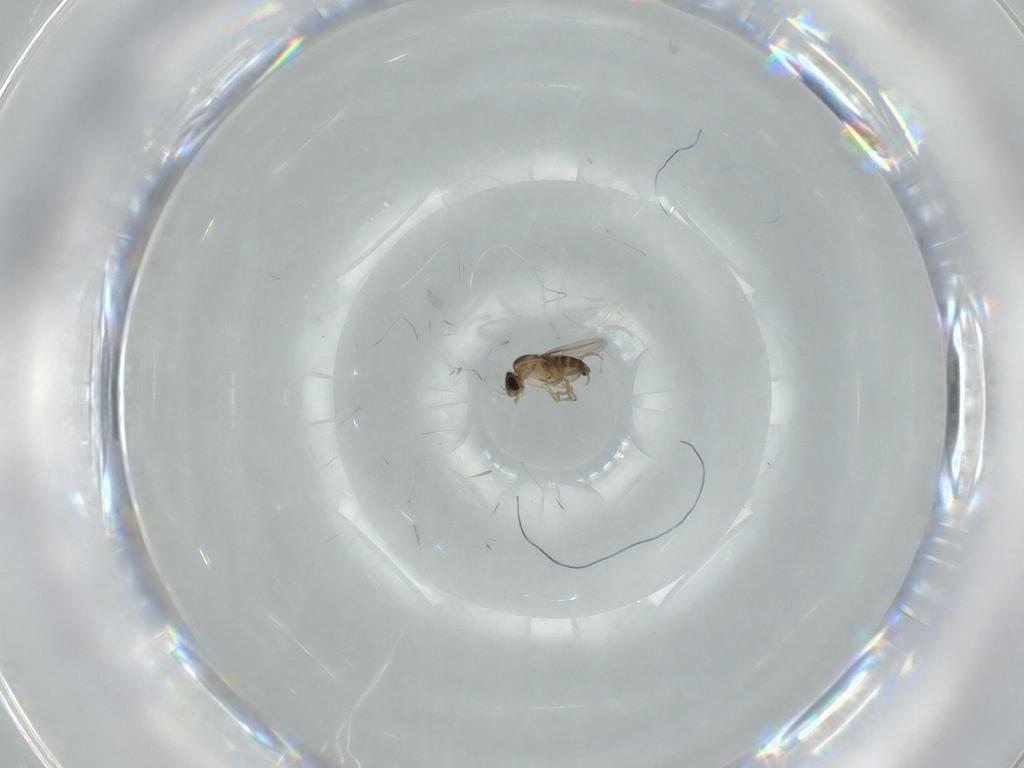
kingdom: Animalia
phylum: Arthropoda
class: Insecta
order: Diptera
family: Phoridae
